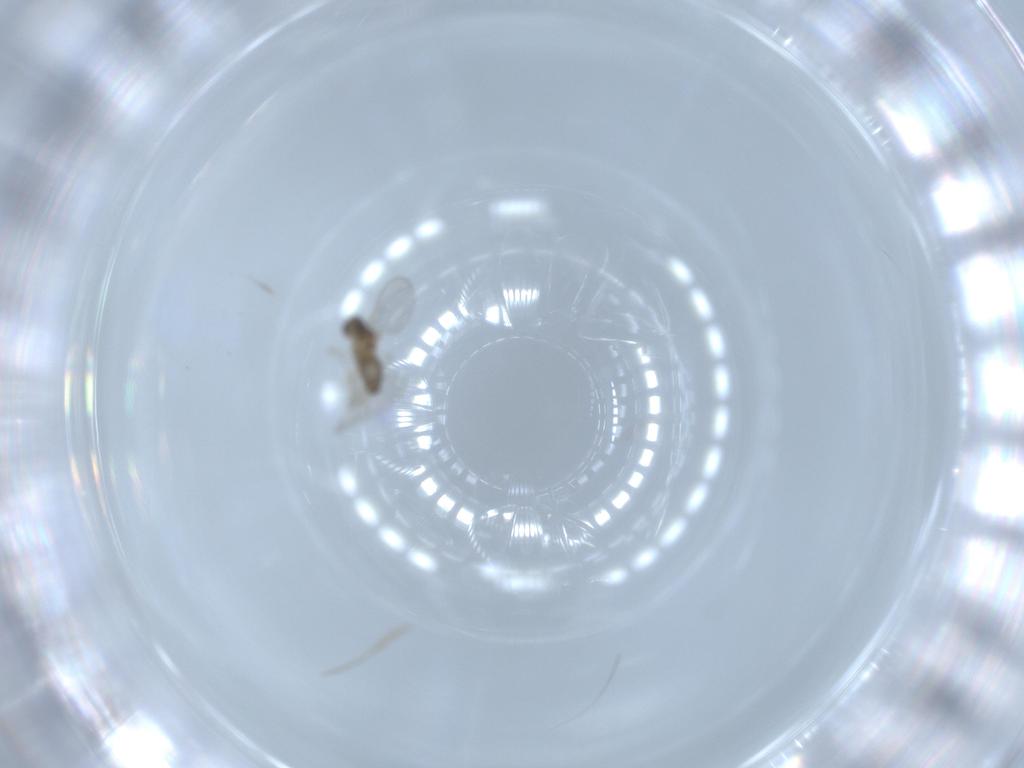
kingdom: Animalia
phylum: Arthropoda
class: Insecta
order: Diptera
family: Cecidomyiidae
